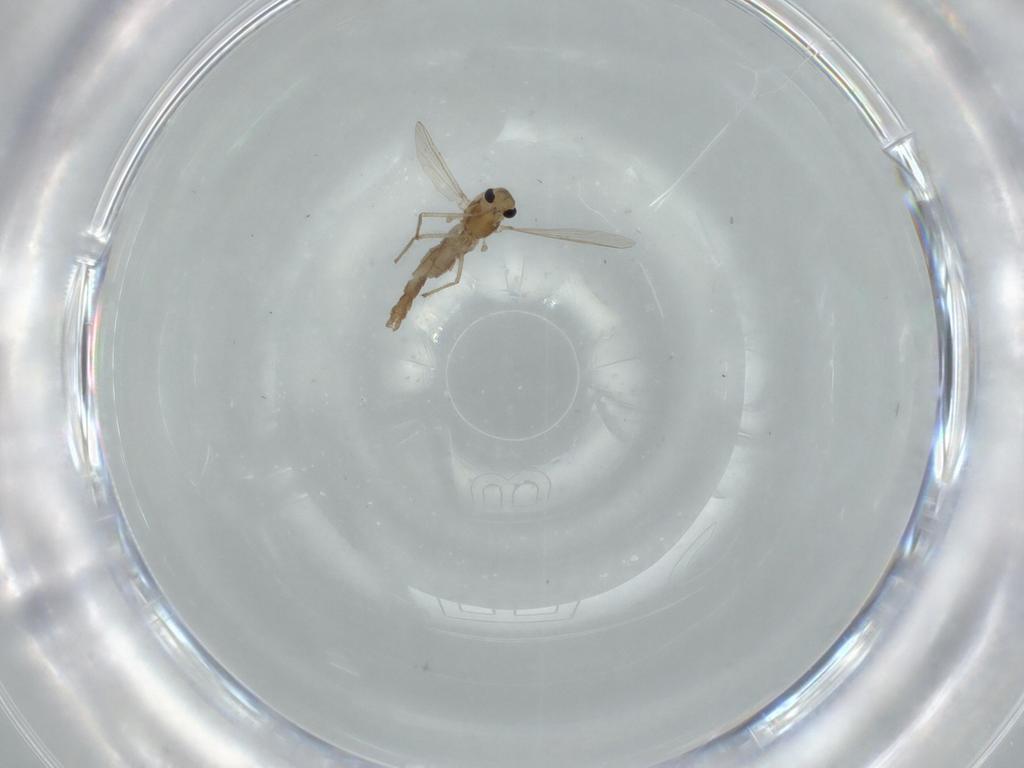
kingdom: Animalia
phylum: Arthropoda
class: Insecta
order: Diptera
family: Chironomidae
